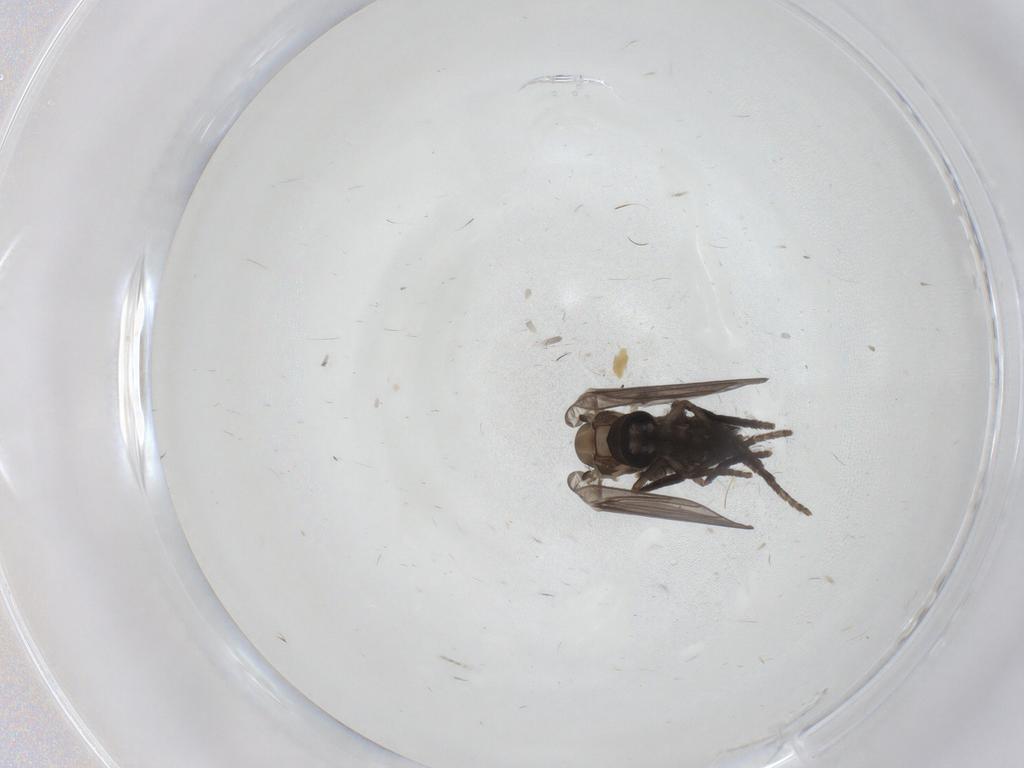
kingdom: Animalia
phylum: Arthropoda
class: Insecta
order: Diptera
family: Psychodidae
